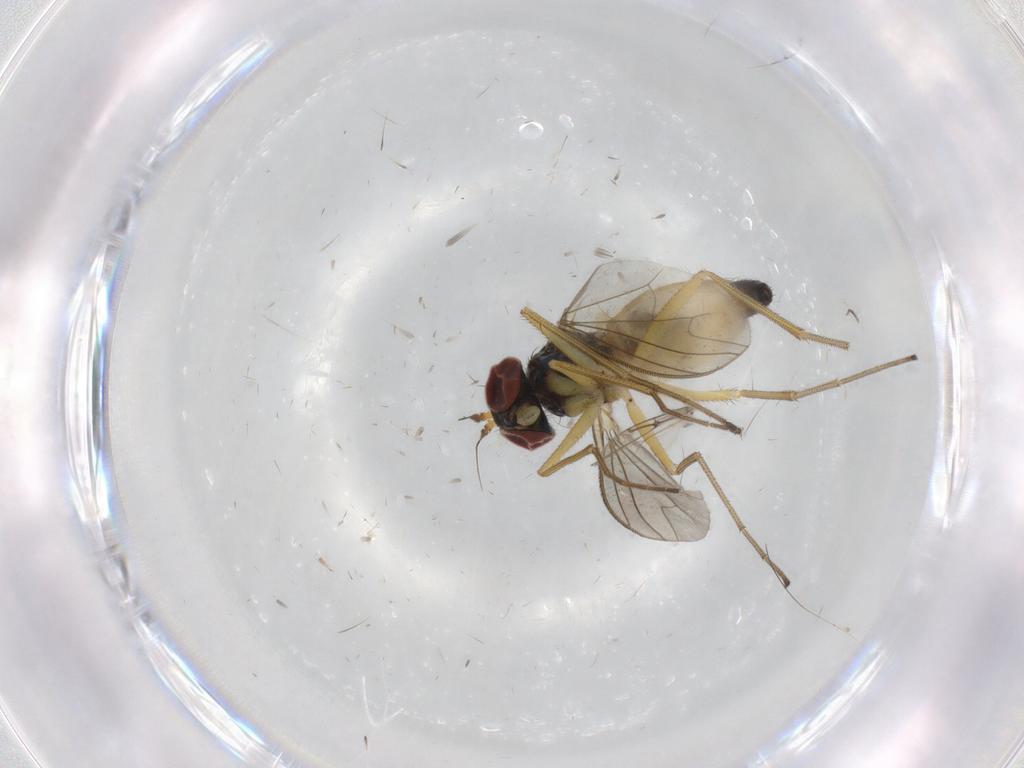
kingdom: Animalia
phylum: Arthropoda
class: Insecta
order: Diptera
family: Dolichopodidae
